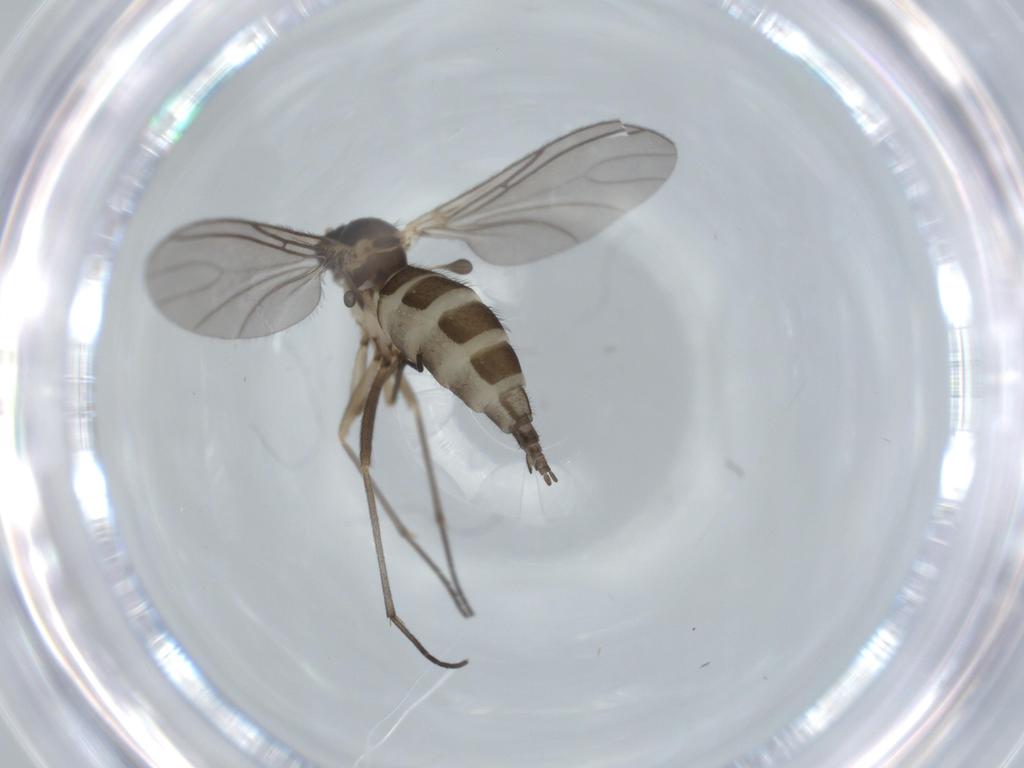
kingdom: Animalia
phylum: Arthropoda
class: Insecta
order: Diptera
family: Sciaridae
